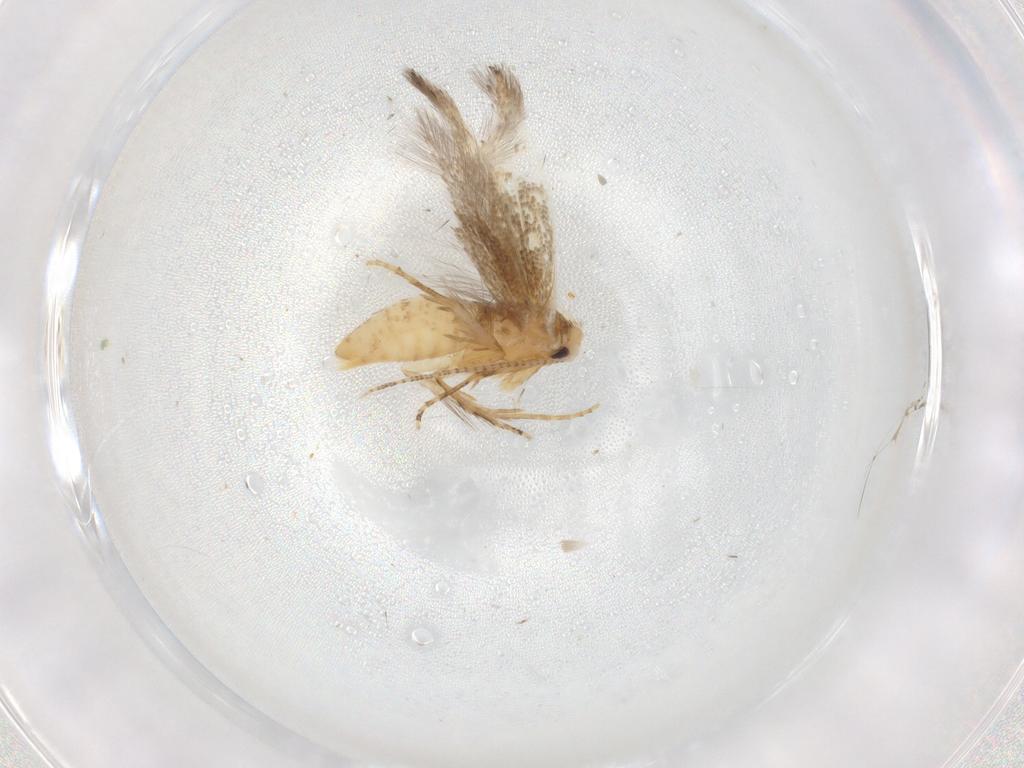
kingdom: Animalia
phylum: Arthropoda
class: Insecta
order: Lepidoptera
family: Bucculatricidae
